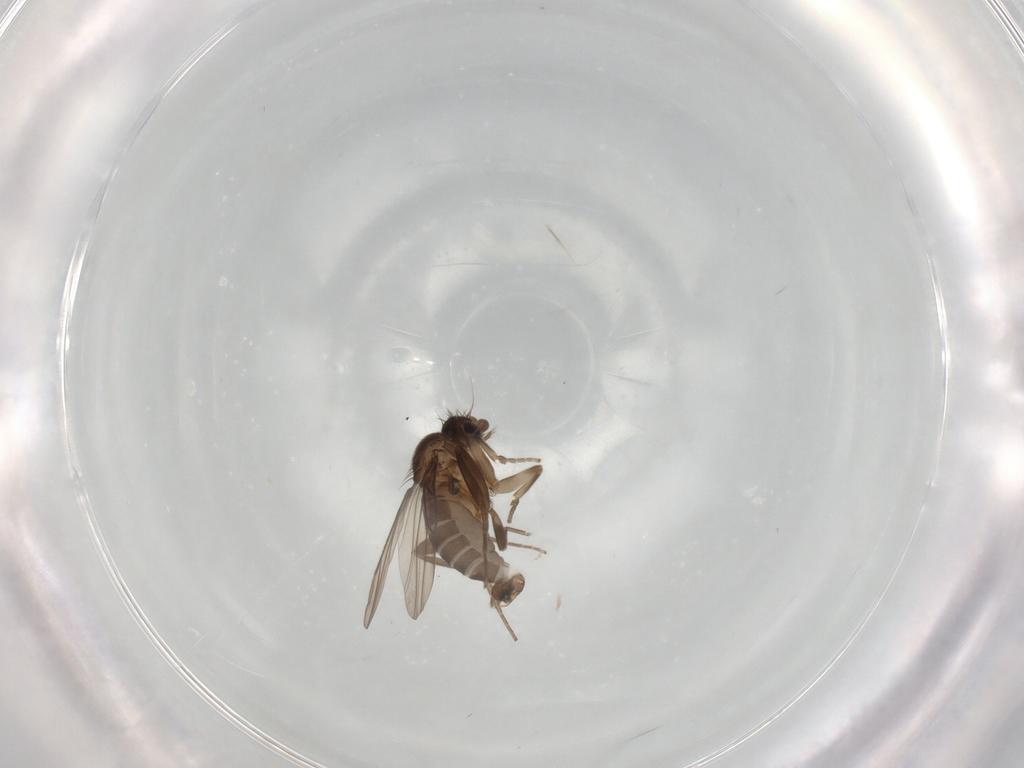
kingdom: Animalia
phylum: Arthropoda
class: Insecta
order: Diptera
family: Phoridae
